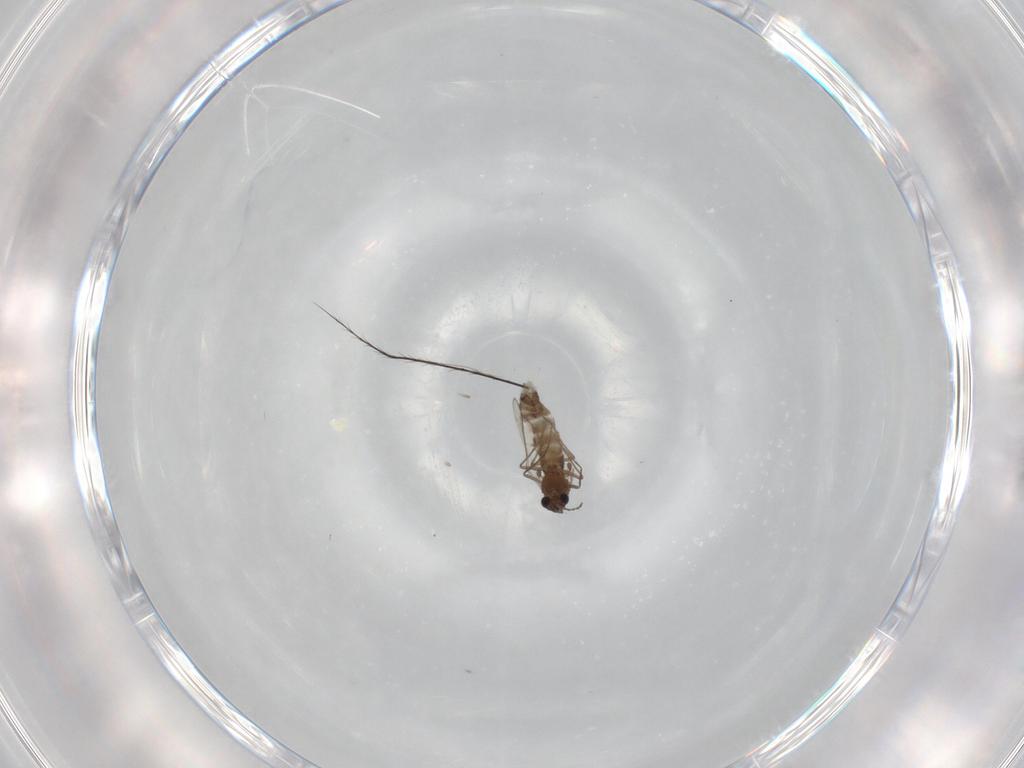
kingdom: Animalia
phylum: Arthropoda
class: Insecta
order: Diptera
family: Chironomidae
